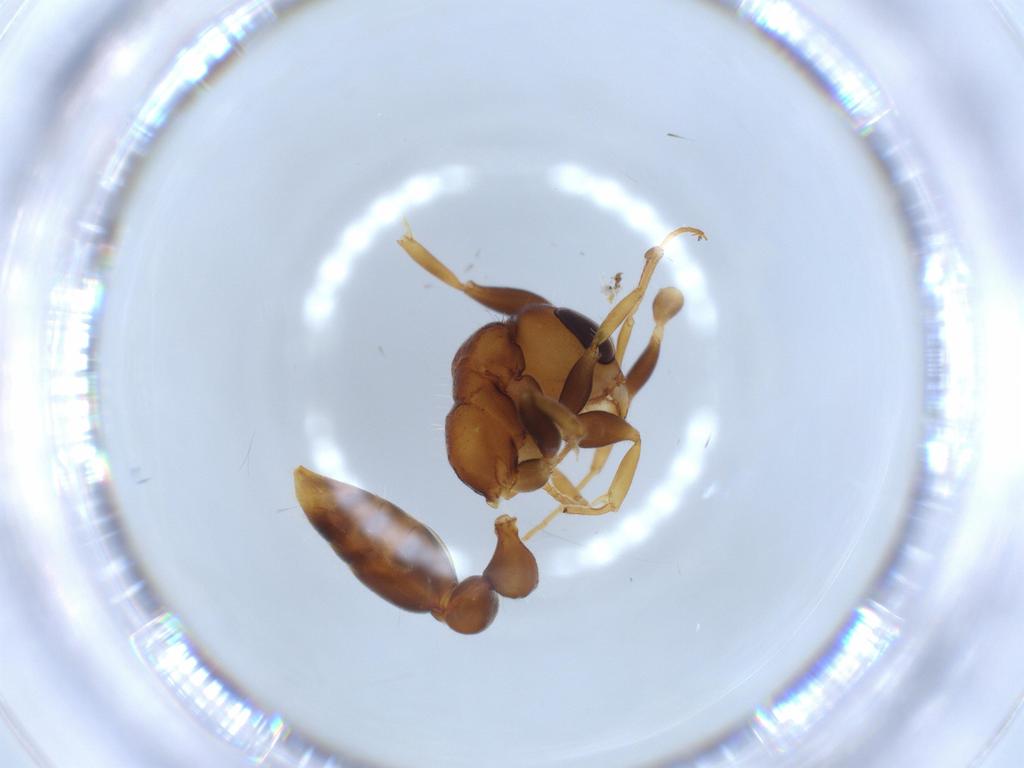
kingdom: Animalia
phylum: Arthropoda
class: Insecta
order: Hymenoptera
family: Formicidae
